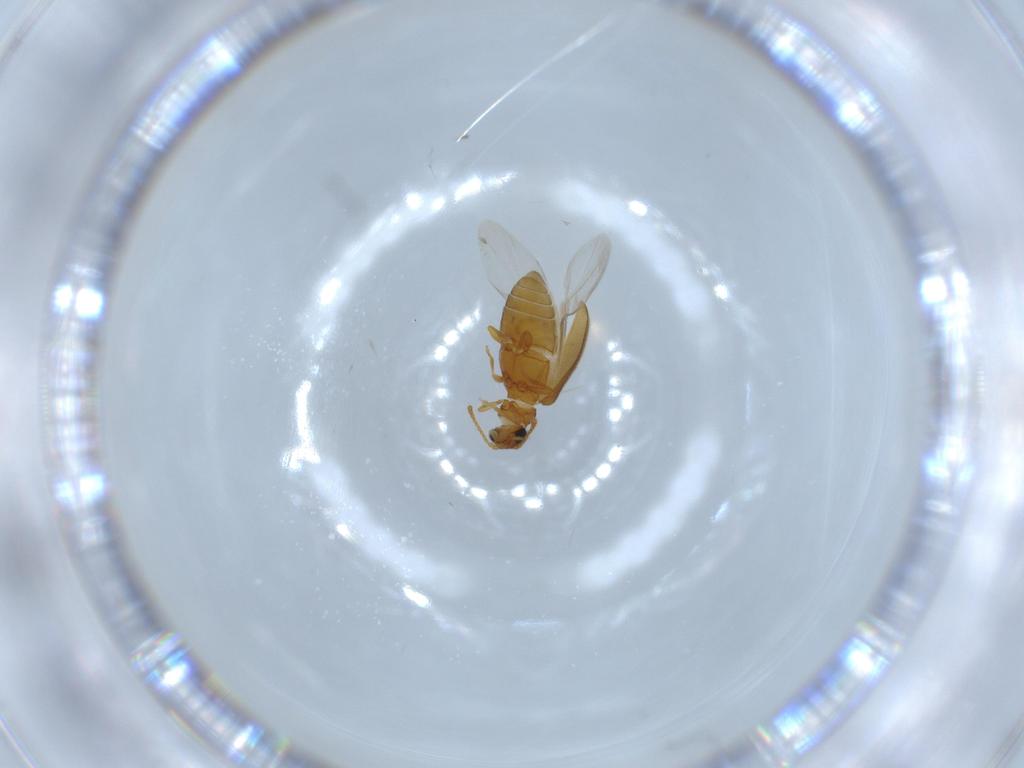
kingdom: Animalia
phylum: Arthropoda
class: Insecta
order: Coleoptera
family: Aderidae
